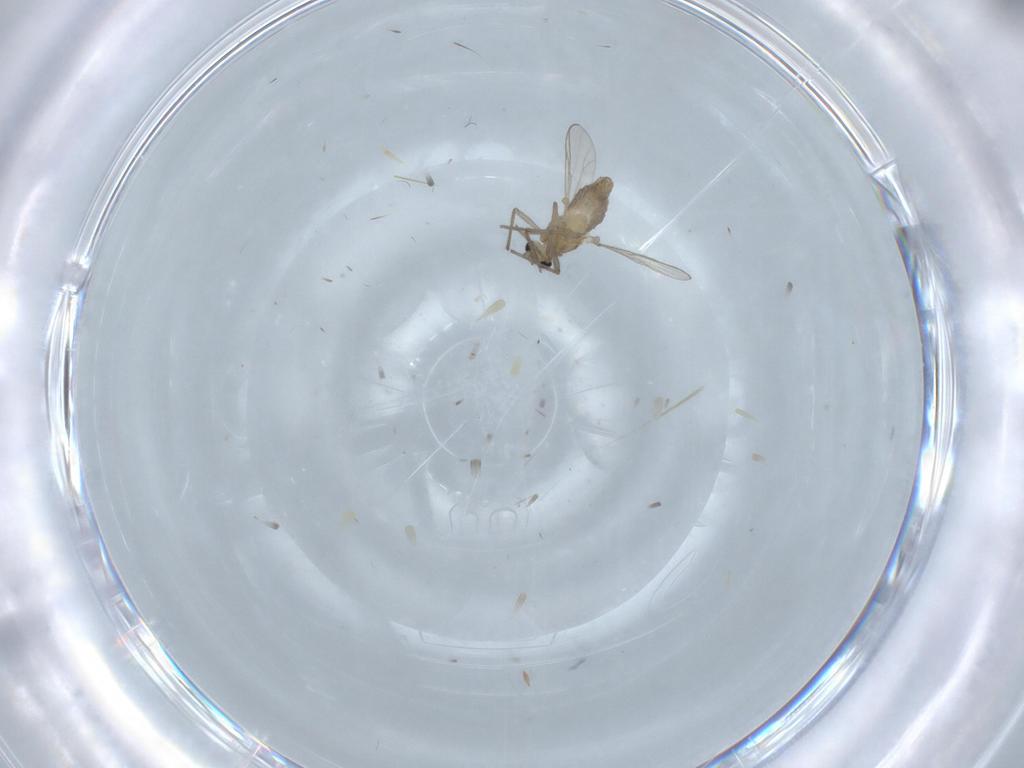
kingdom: Animalia
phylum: Arthropoda
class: Insecta
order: Diptera
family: Chironomidae
